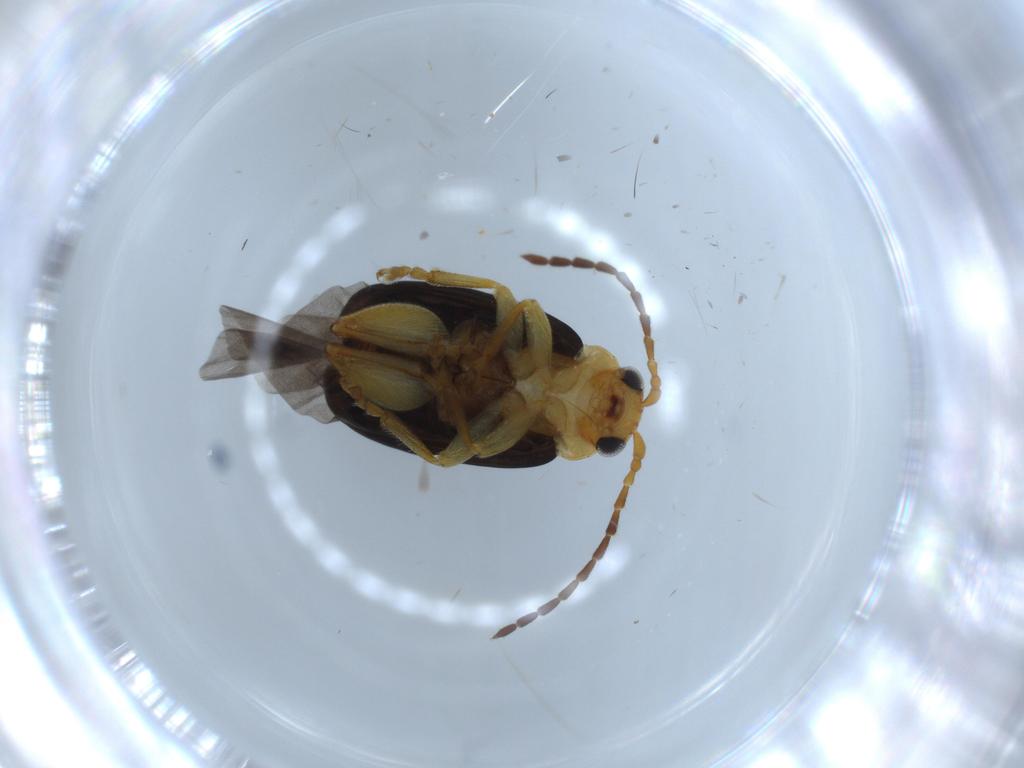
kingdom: Animalia
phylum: Arthropoda
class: Insecta
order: Coleoptera
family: Chrysomelidae
